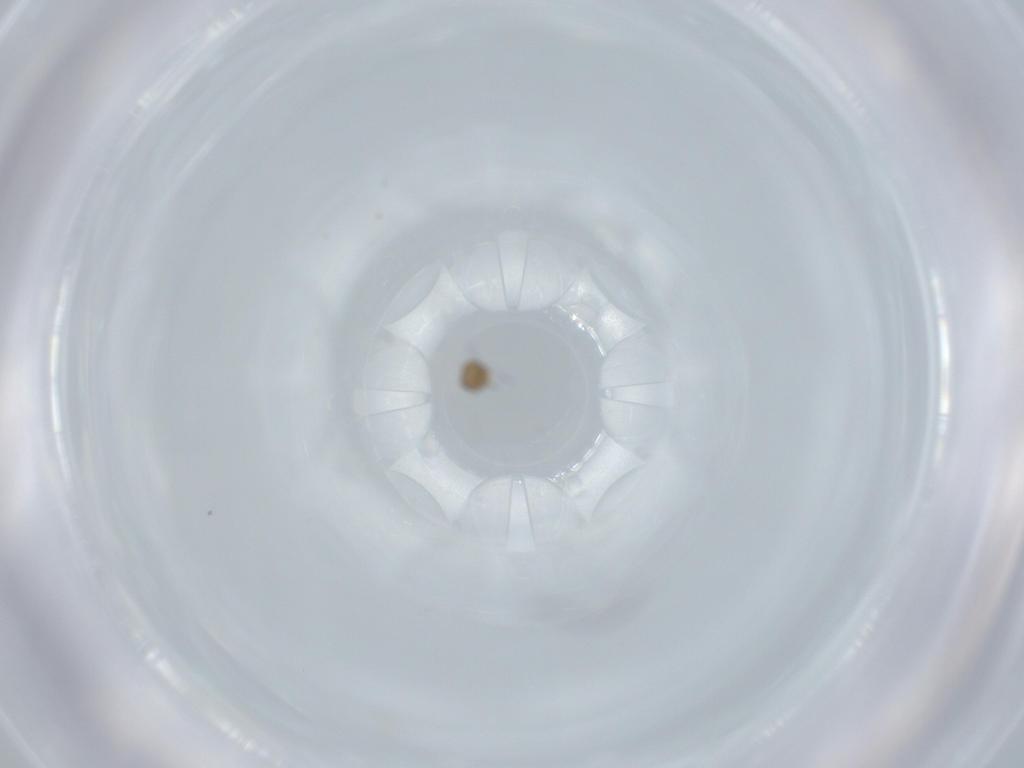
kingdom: Animalia
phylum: Arthropoda
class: Insecta
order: Diptera
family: Phoridae
